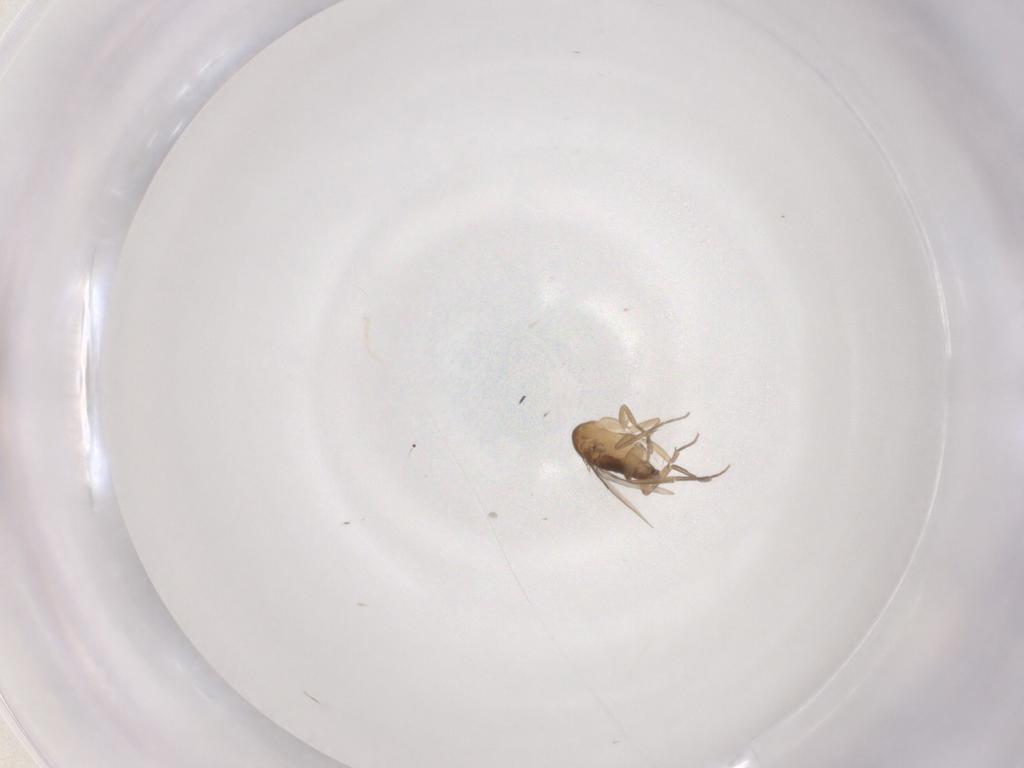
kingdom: Animalia
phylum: Arthropoda
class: Insecta
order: Diptera
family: Phoridae
